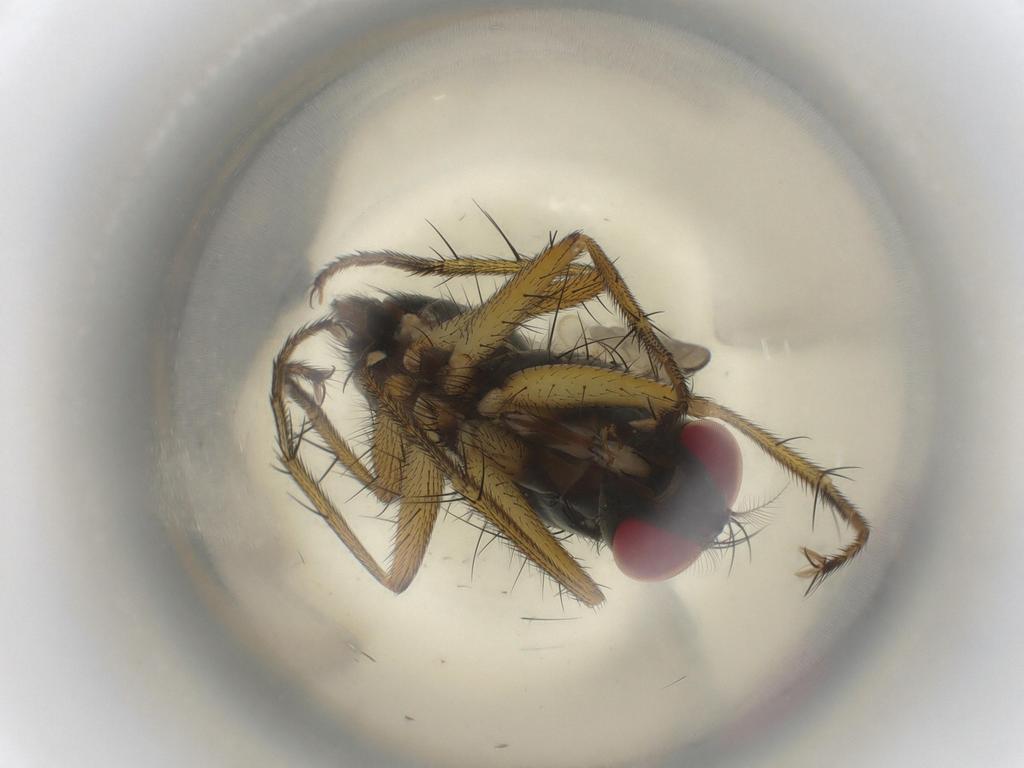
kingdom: Animalia
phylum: Arthropoda
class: Insecta
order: Diptera
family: Muscidae
